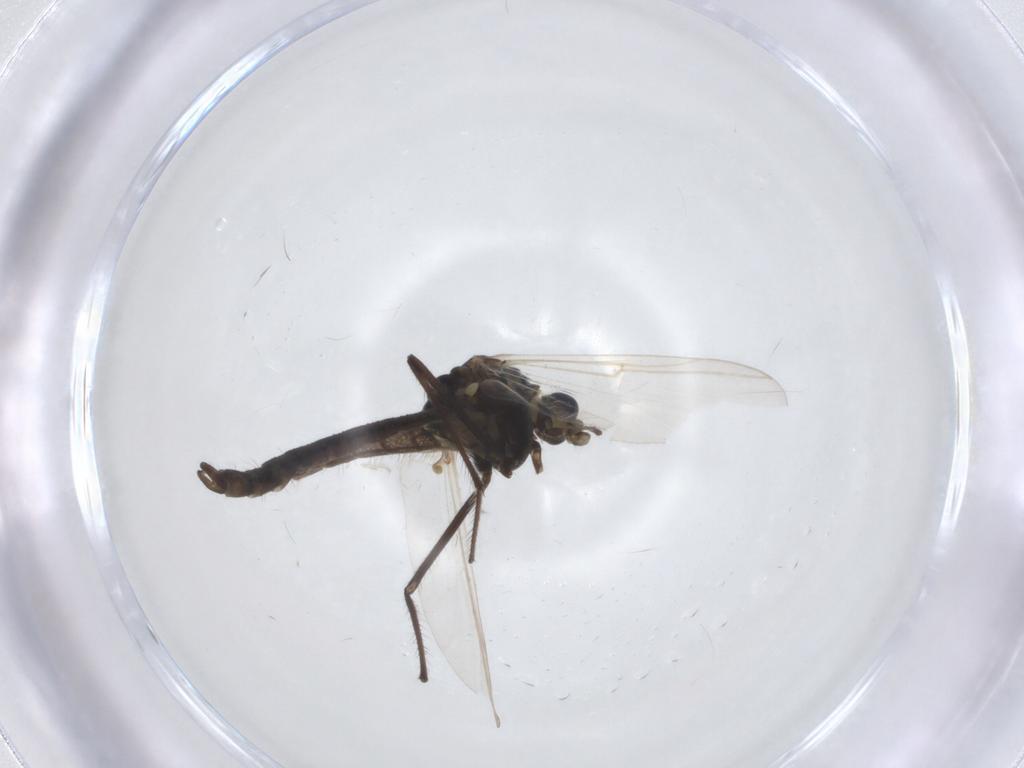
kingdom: Animalia
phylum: Arthropoda
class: Insecta
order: Diptera
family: Chironomidae
